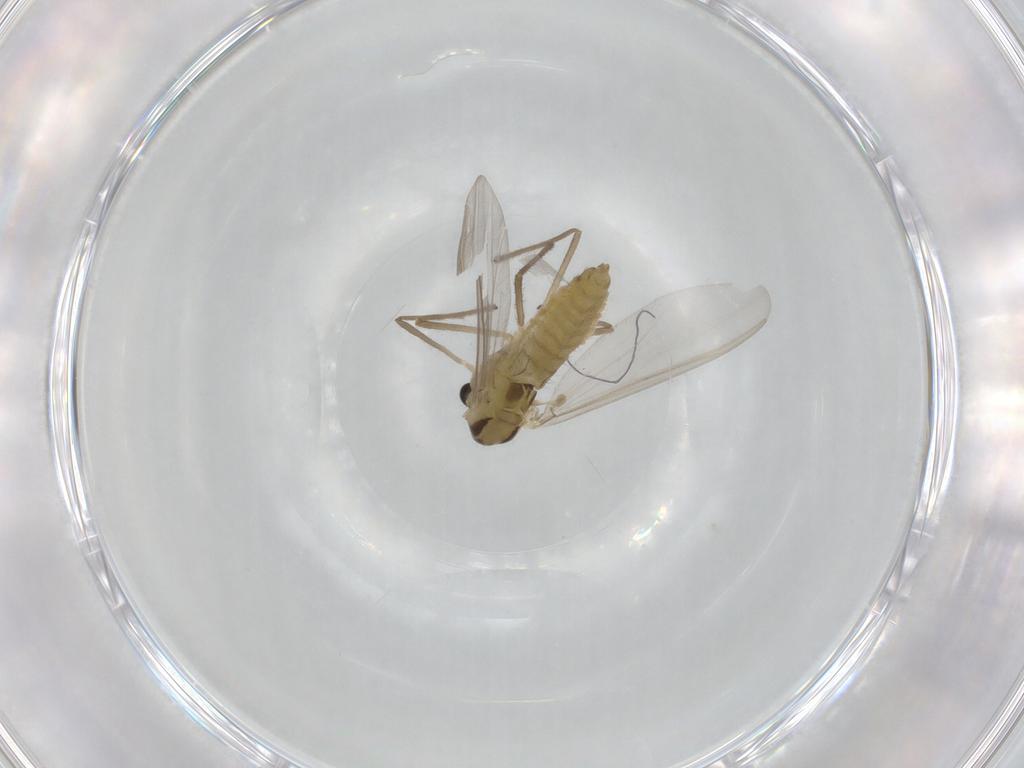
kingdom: Animalia
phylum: Arthropoda
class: Insecta
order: Diptera
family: Chironomidae
